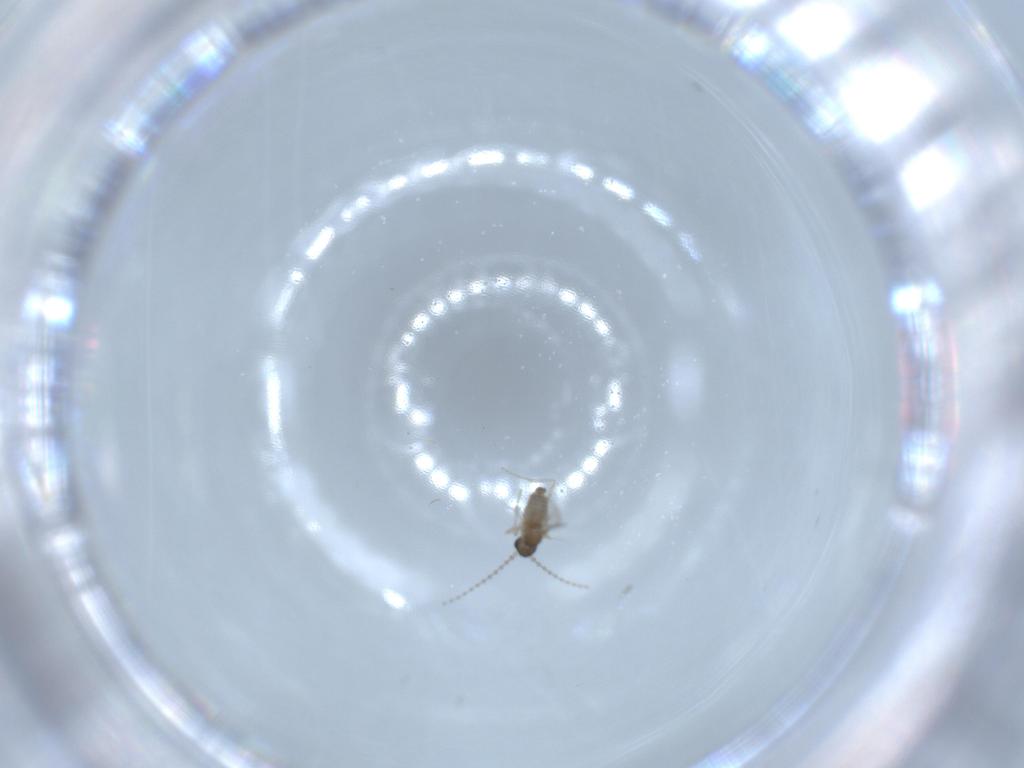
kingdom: Animalia
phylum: Arthropoda
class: Insecta
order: Diptera
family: Cecidomyiidae
